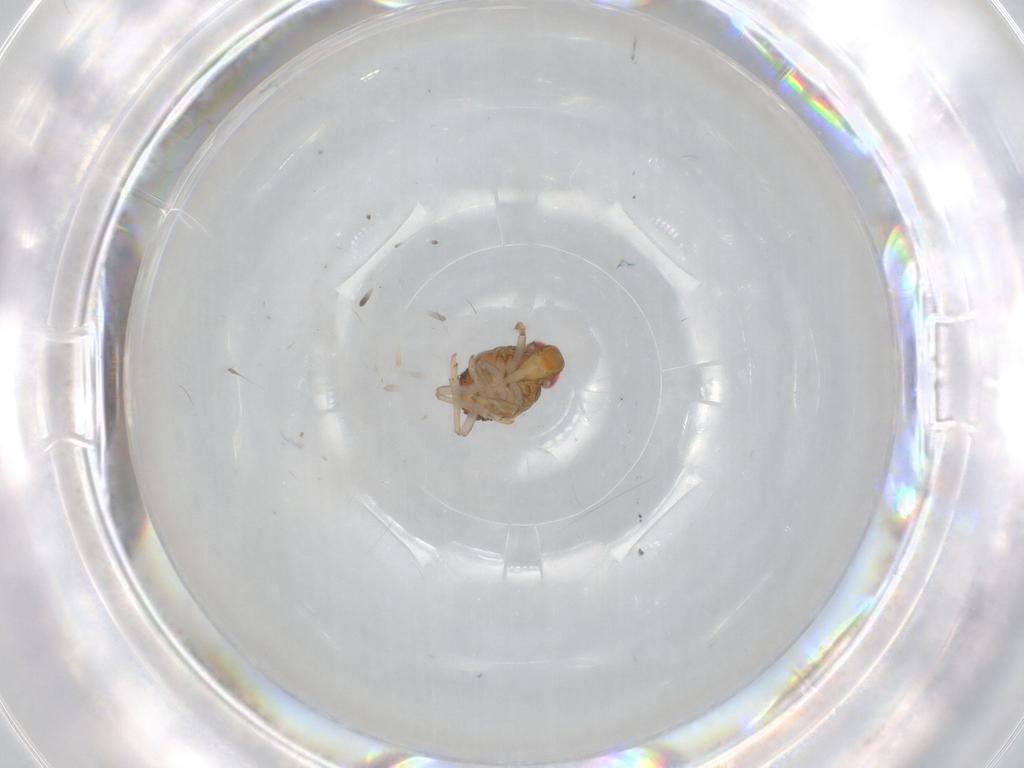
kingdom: Animalia
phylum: Arthropoda
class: Insecta
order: Hemiptera
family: Issidae
